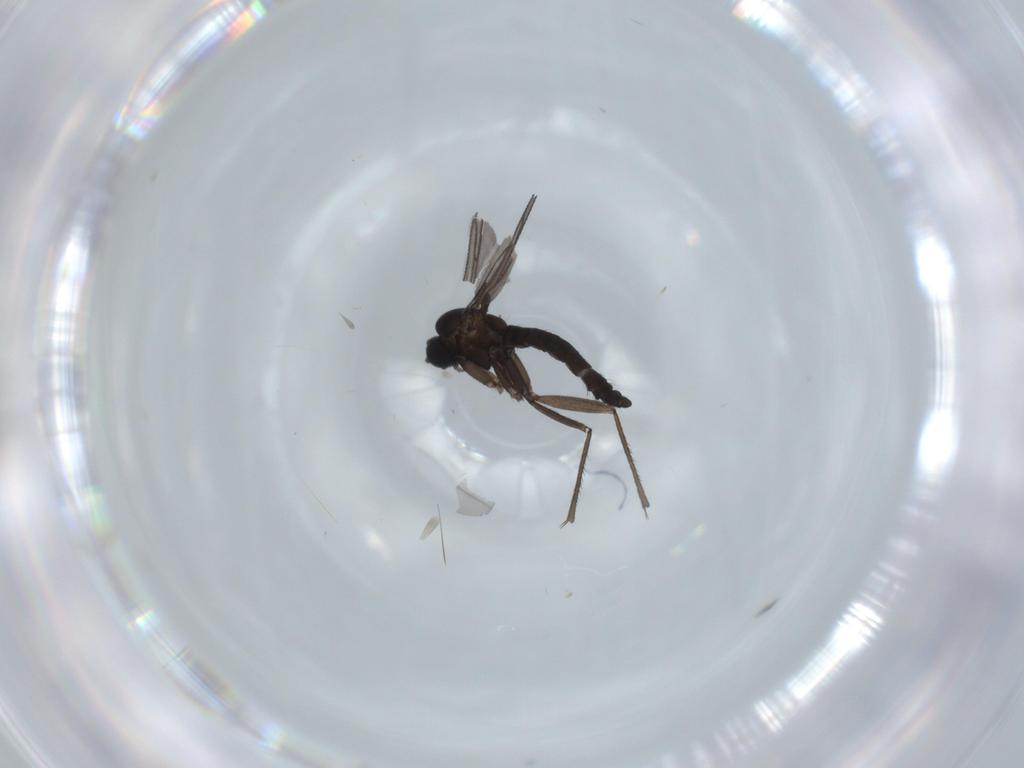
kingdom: Animalia
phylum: Arthropoda
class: Insecta
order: Diptera
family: Sciaridae
